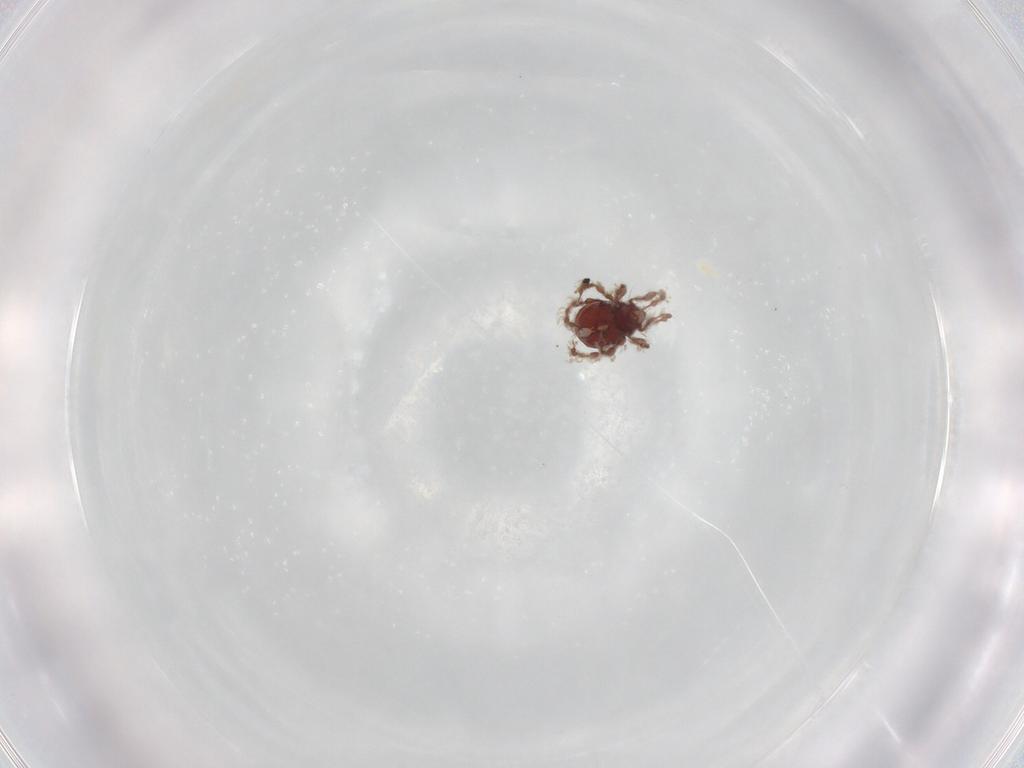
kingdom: Animalia
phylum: Arthropoda
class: Arachnida
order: Sarcoptiformes
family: Damaeidae
